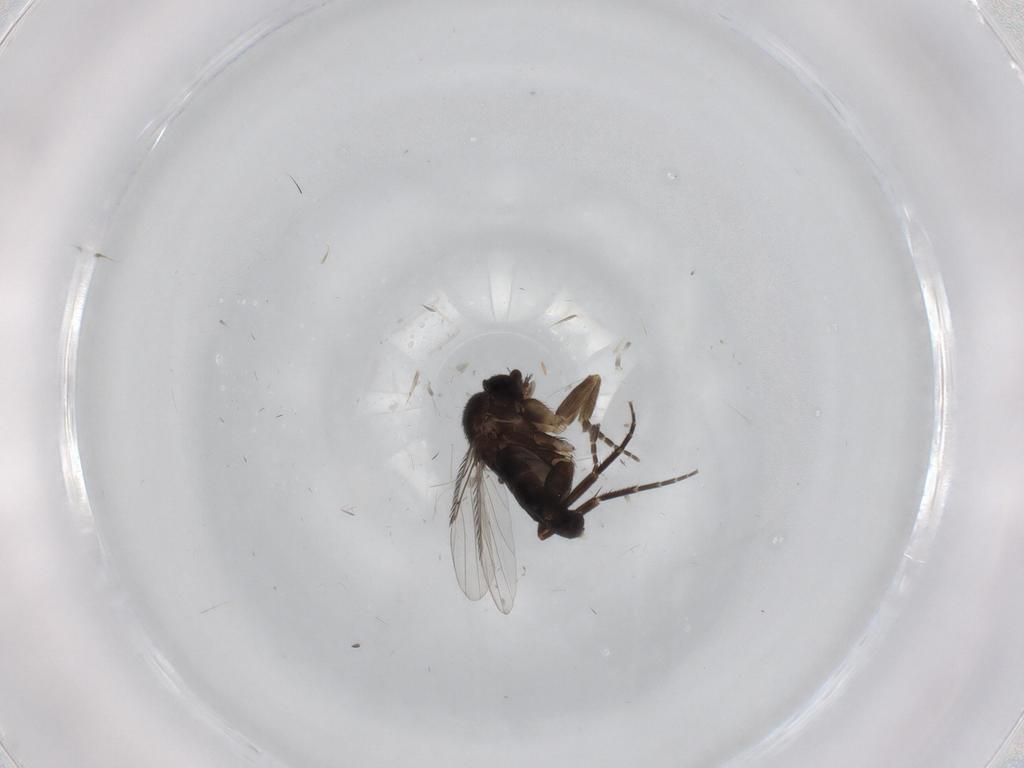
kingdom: Animalia
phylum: Arthropoda
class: Insecta
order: Diptera
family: Phoridae
